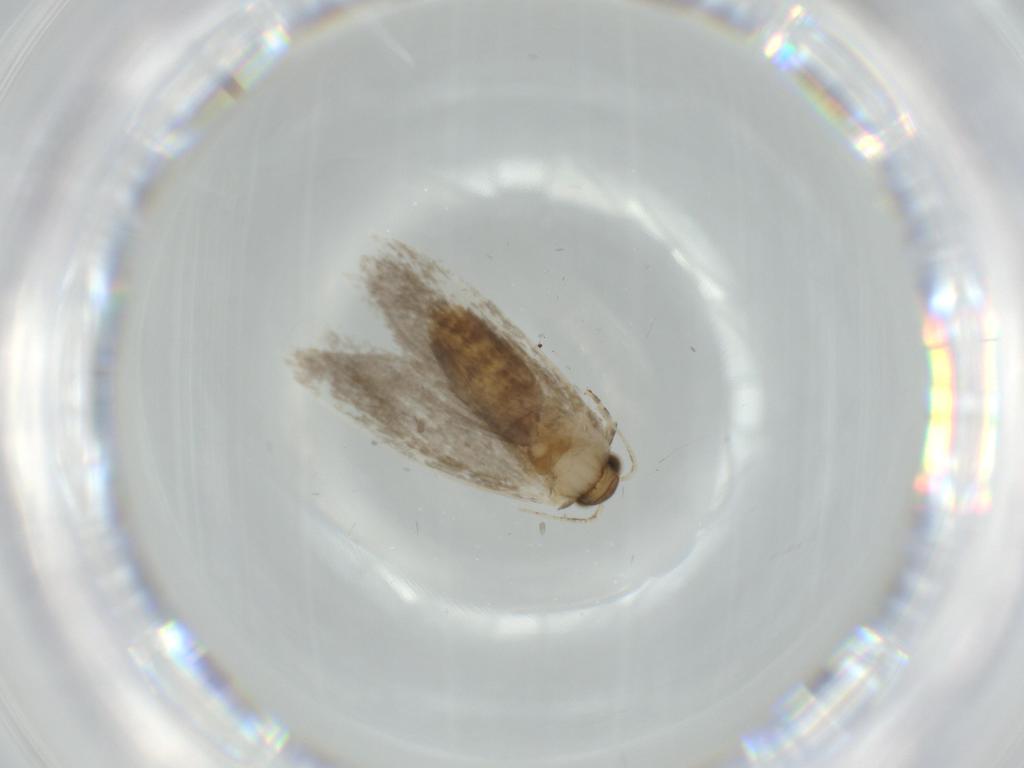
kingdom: Animalia
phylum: Arthropoda
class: Insecta
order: Lepidoptera
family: Tineidae
